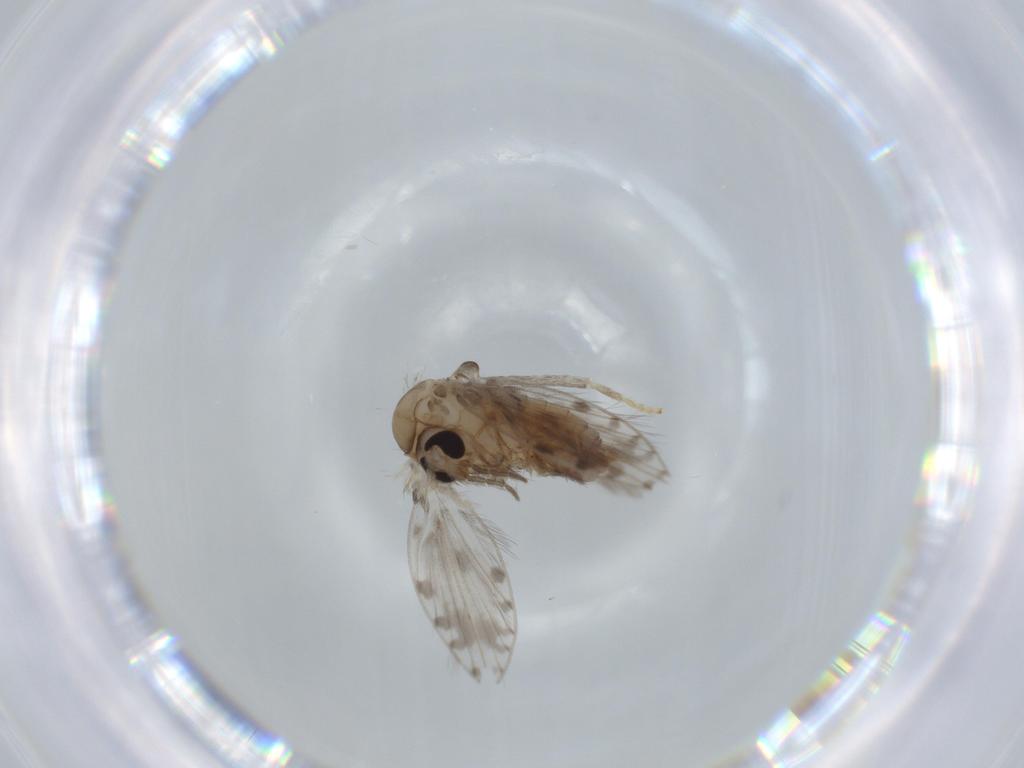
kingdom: Animalia
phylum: Arthropoda
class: Insecta
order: Diptera
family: Psychodidae
